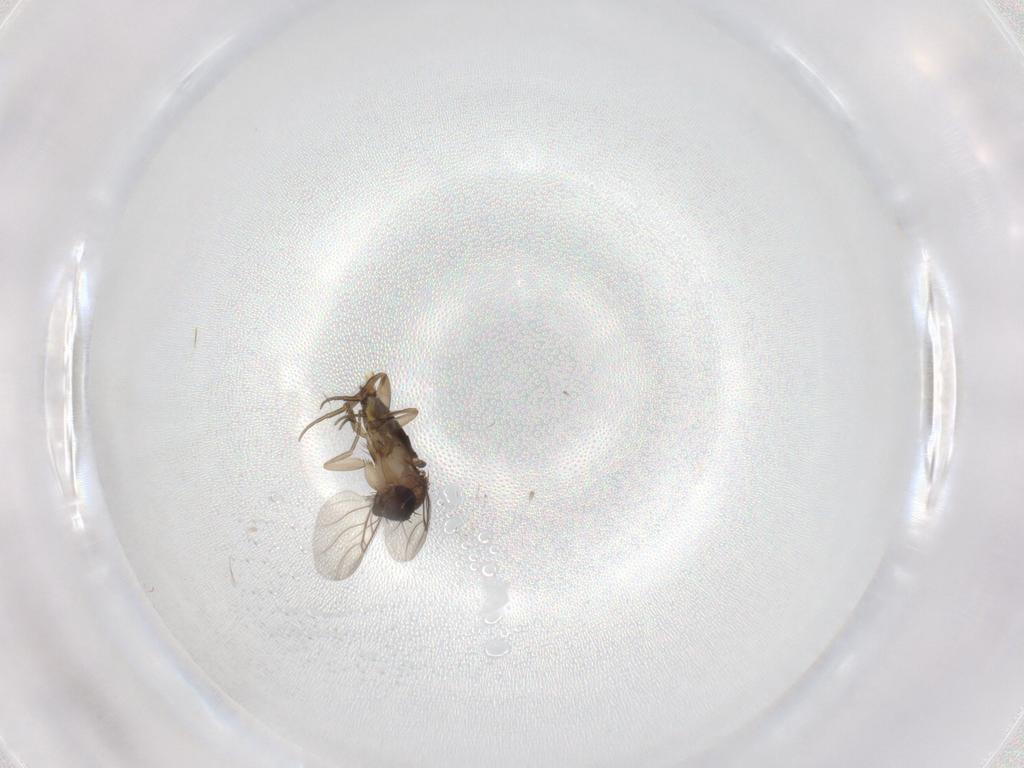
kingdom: Animalia
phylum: Arthropoda
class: Insecta
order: Diptera
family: Phoridae
